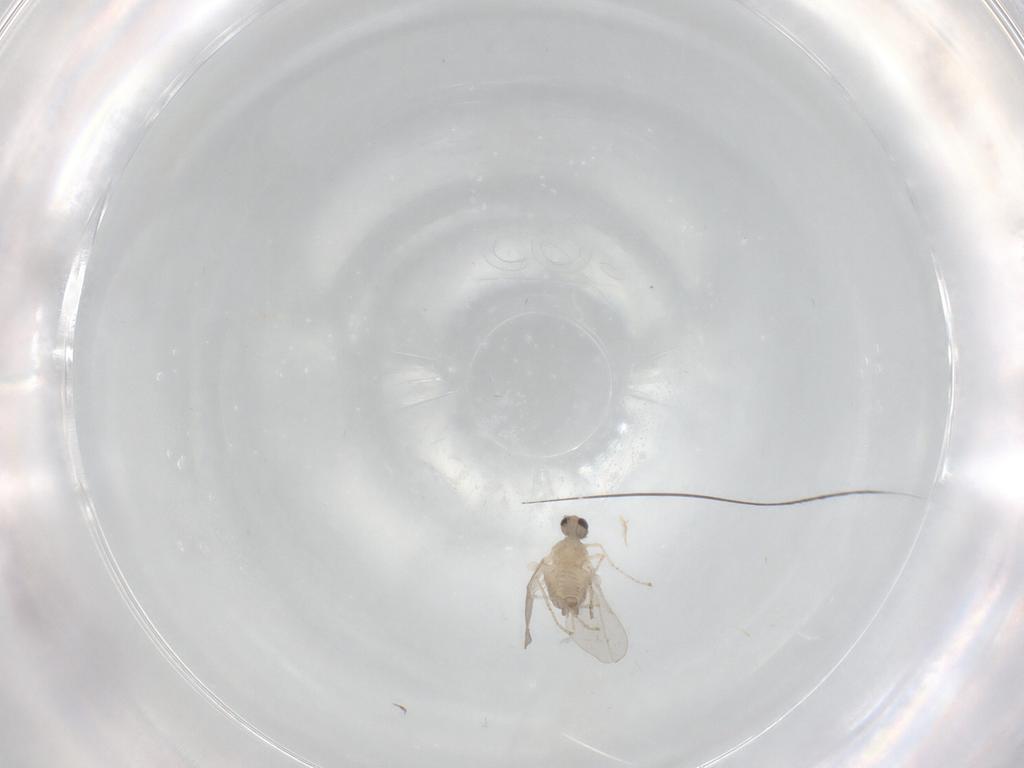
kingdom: Animalia
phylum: Arthropoda
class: Insecta
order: Diptera
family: Cecidomyiidae
